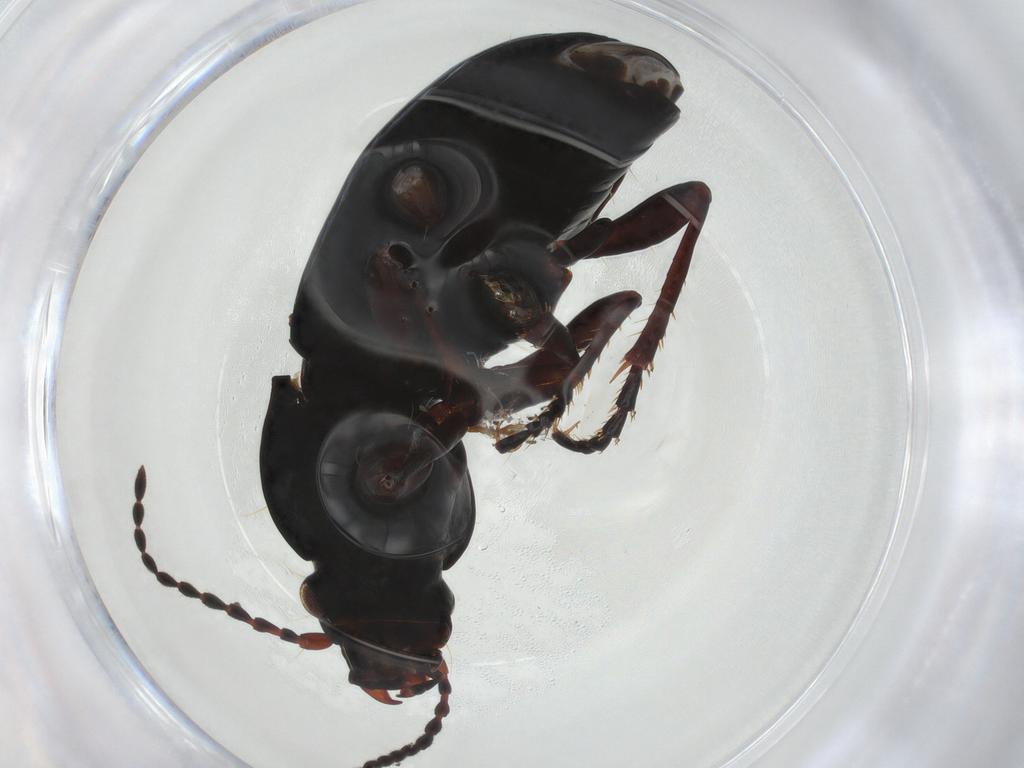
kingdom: Animalia
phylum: Arthropoda
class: Insecta
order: Coleoptera
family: Carabidae
